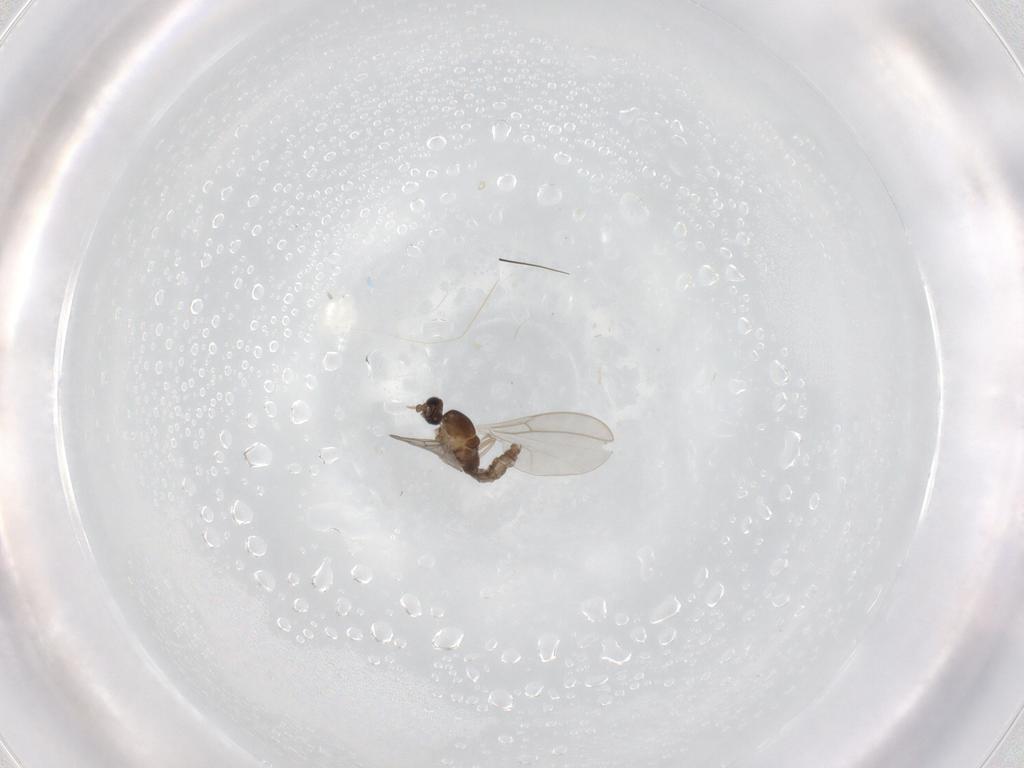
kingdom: Animalia
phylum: Arthropoda
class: Insecta
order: Diptera
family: Cecidomyiidae
